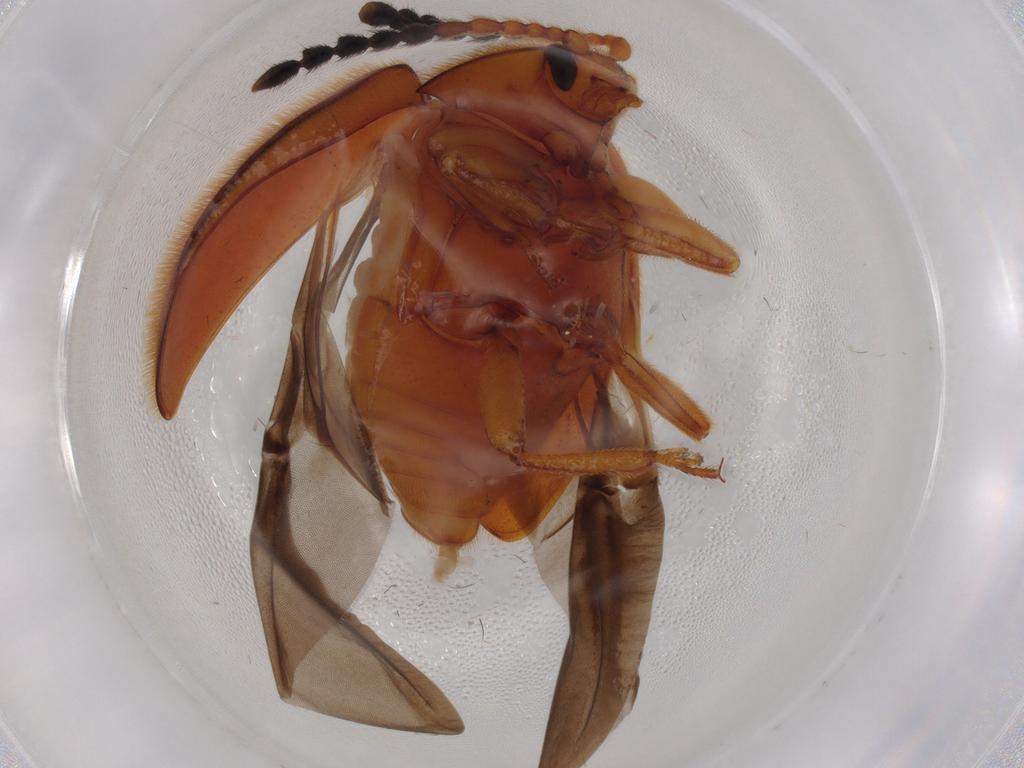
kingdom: Animalia
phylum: Arthropoda
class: Insecta
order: Coleoptera
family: Endomychidae
